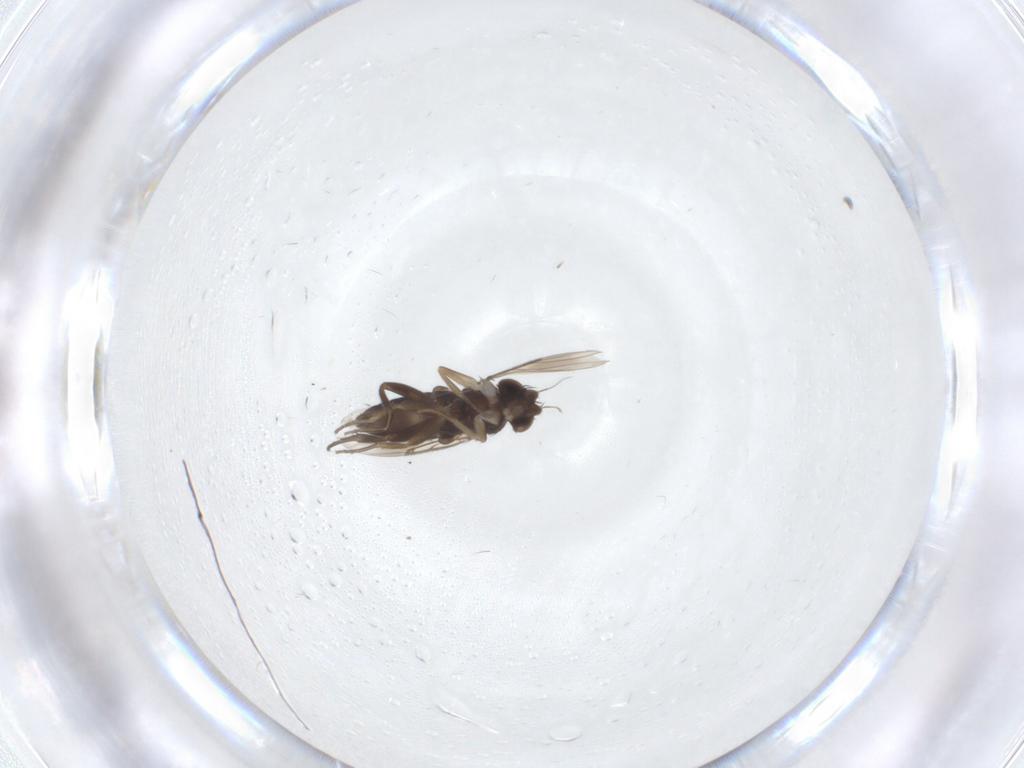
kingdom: Animalia
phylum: Arthropoda
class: Insecta
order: Diptera
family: Phoridae
